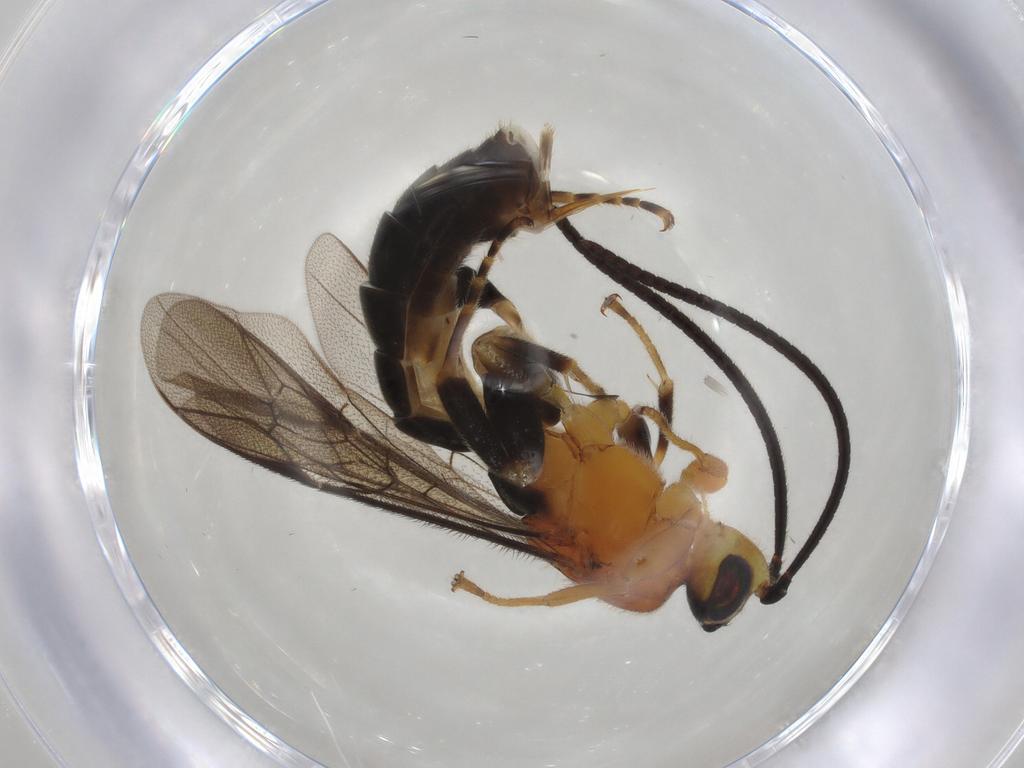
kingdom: Animalia
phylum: Arthropoda
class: Insecta
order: Hymenoptera
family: Ichneumonidae
